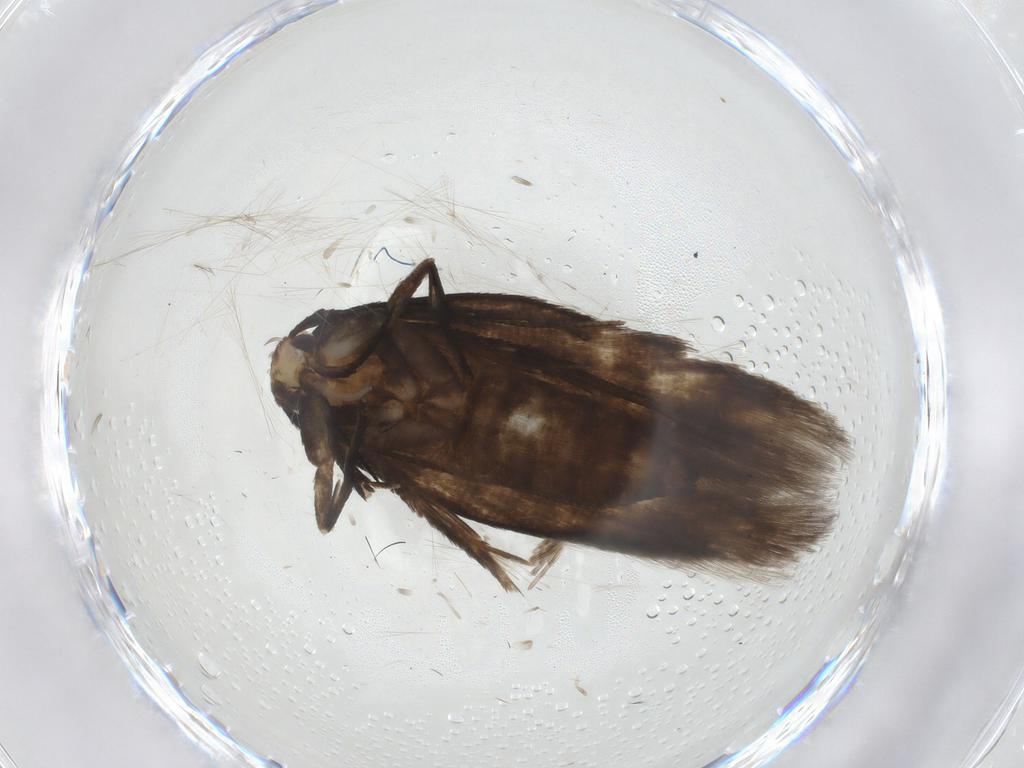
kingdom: Animalia
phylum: Arthropoda
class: Insecta
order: Lepidoptera
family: Cosmopterigidae
